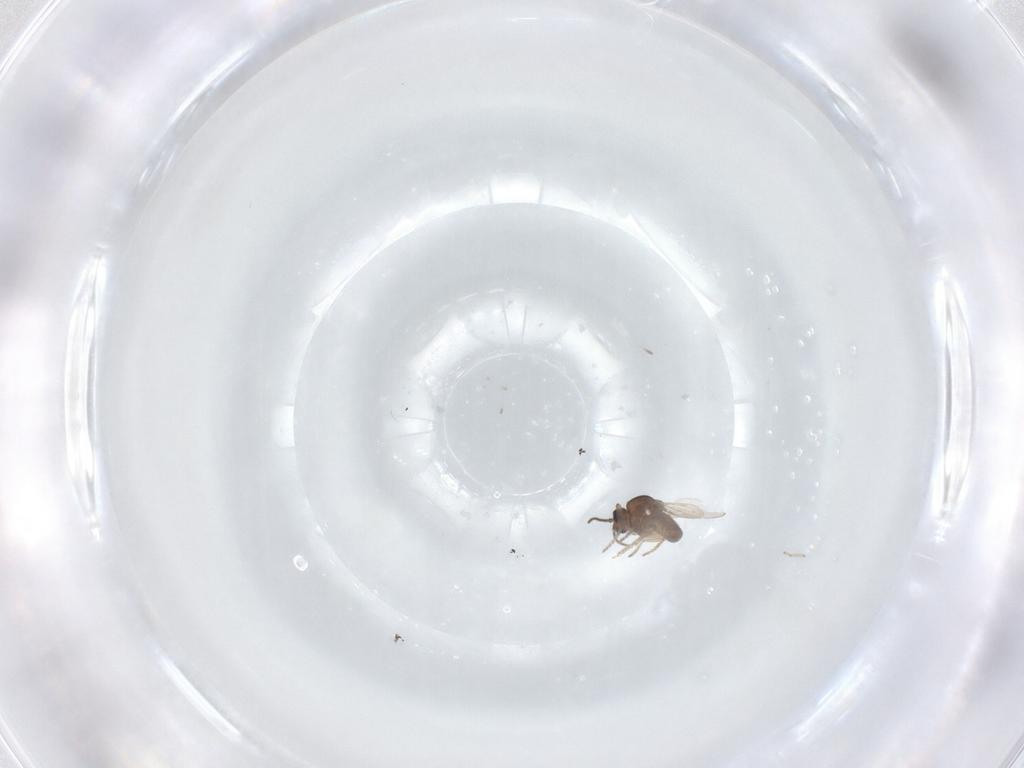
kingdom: Animalia
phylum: Arthropoda
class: Insecta
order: Diptera
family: Ceratopogonidae
